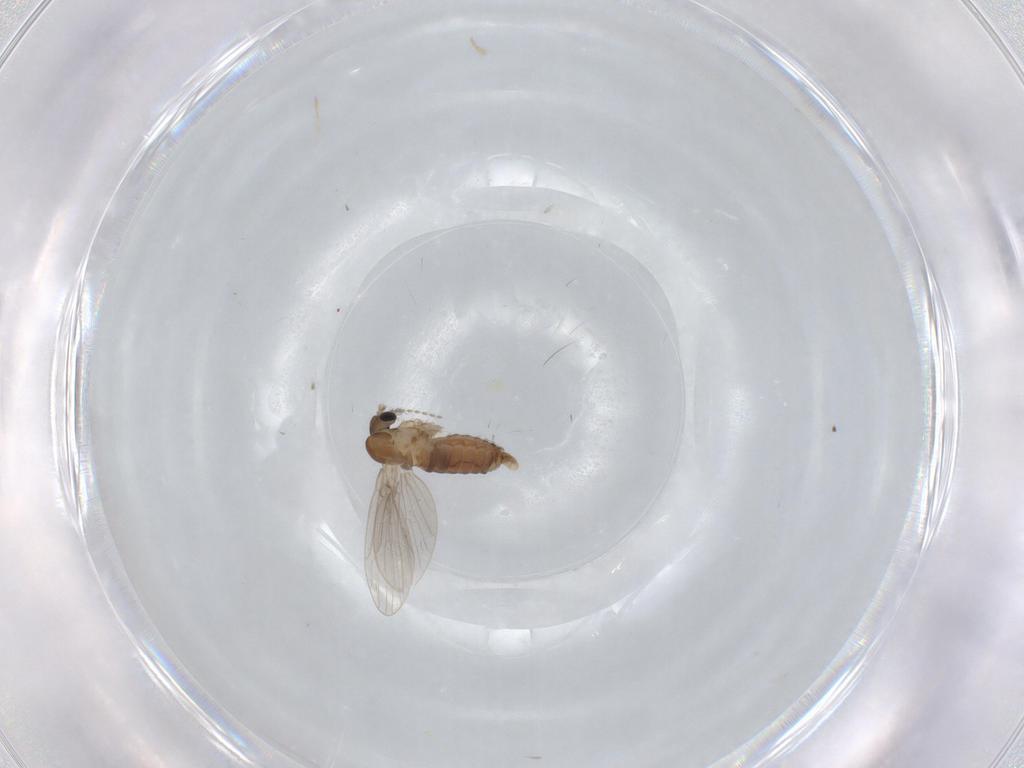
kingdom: Animalia
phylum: Arthropoda
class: Insecta
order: Diptera
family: Psychodidae
